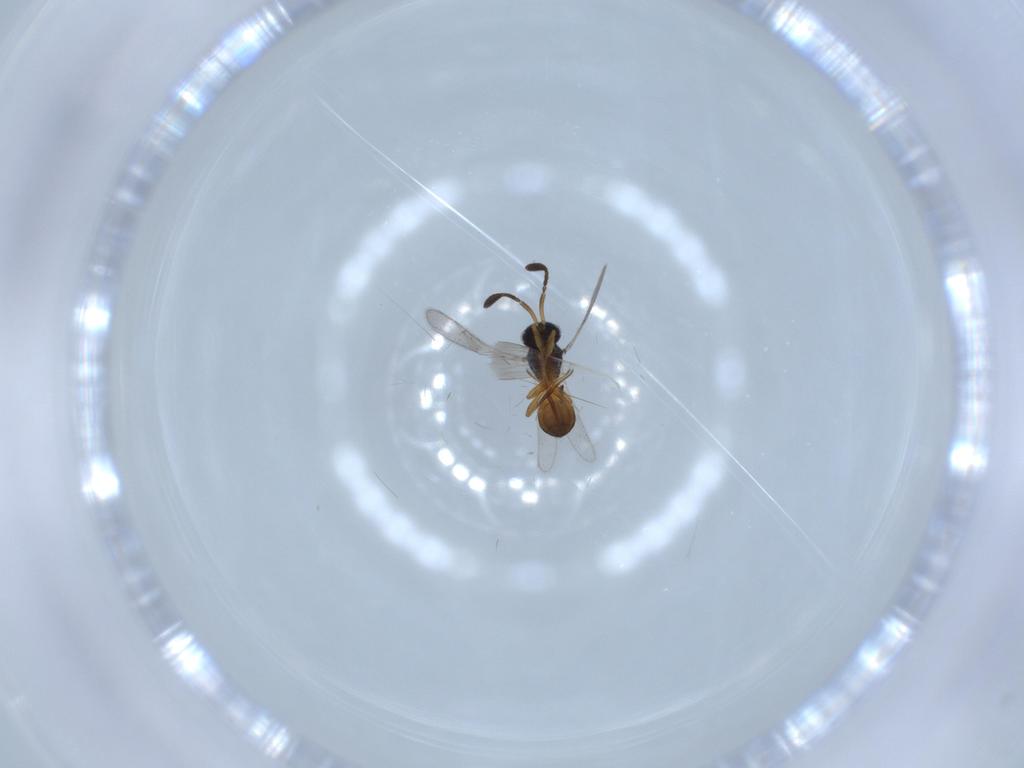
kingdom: Animalia
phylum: Arthropoda
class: Insecta
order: Hymenoptera
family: Scelionidae
